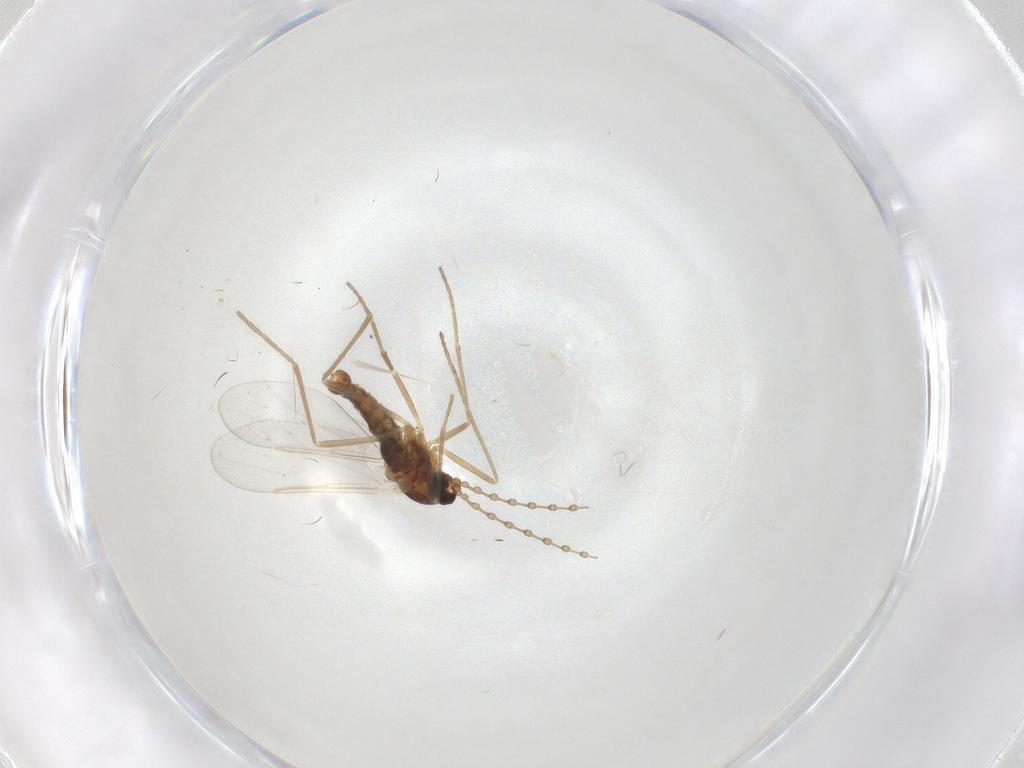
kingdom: Animalia
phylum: Arthropoda
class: Insecta
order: Diptera
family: Cecidomyiidae
